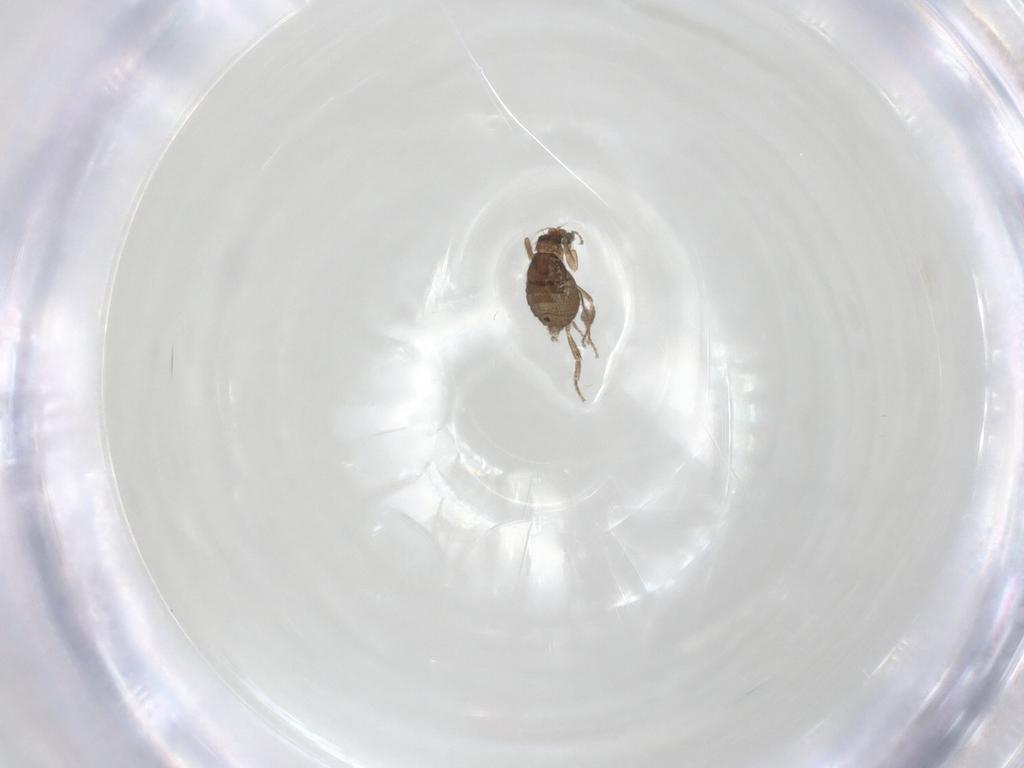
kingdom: Animalia
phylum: Arthropoda
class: Insecta
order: Diptera
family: Phoridae
